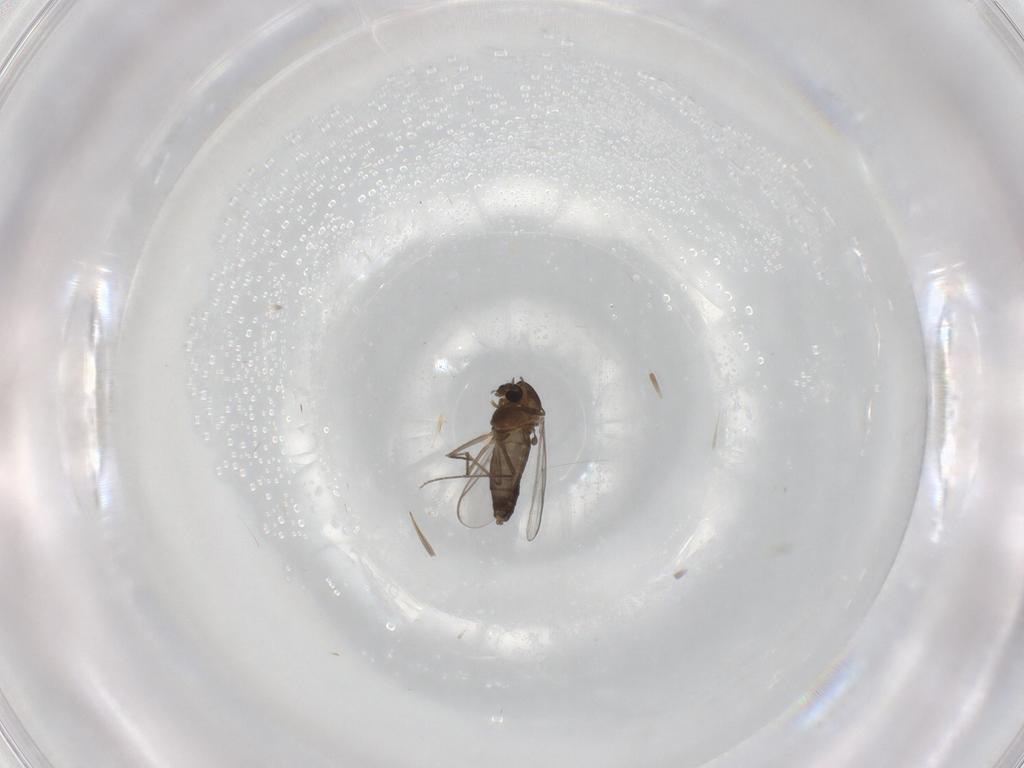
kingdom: Animalia
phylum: Arthropoda
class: Insecta
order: Diptera
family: Chironomidae
